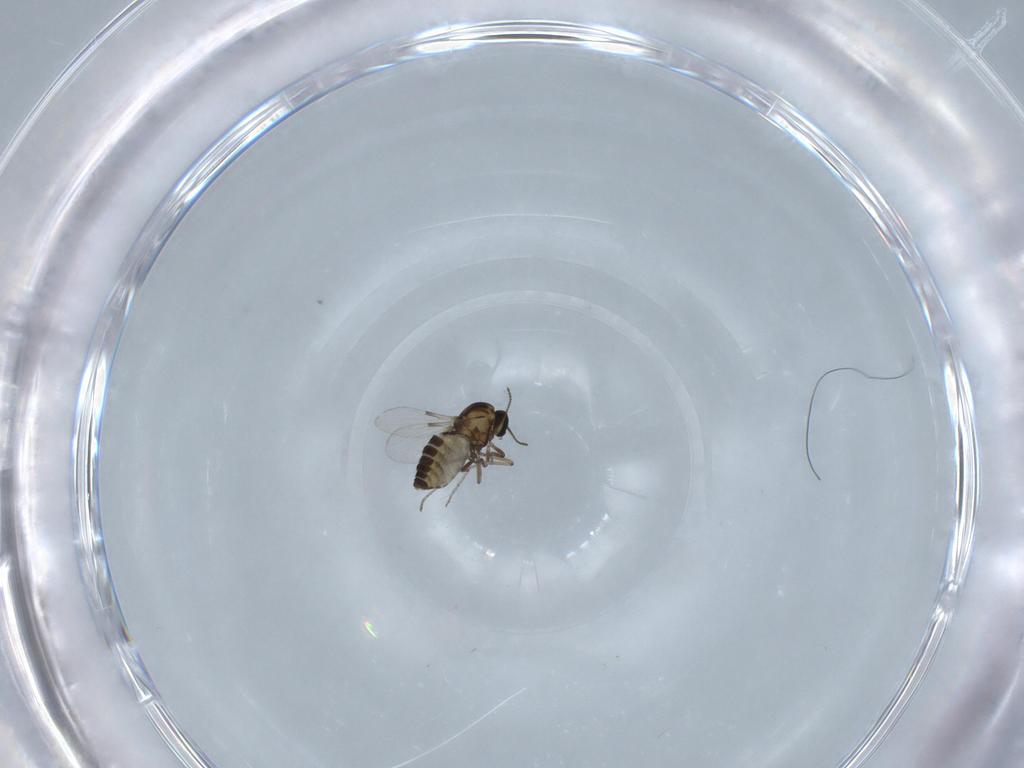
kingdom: Animalia
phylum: Arthropoda
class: Insecta
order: Diptera
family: Ceratopogonidae
